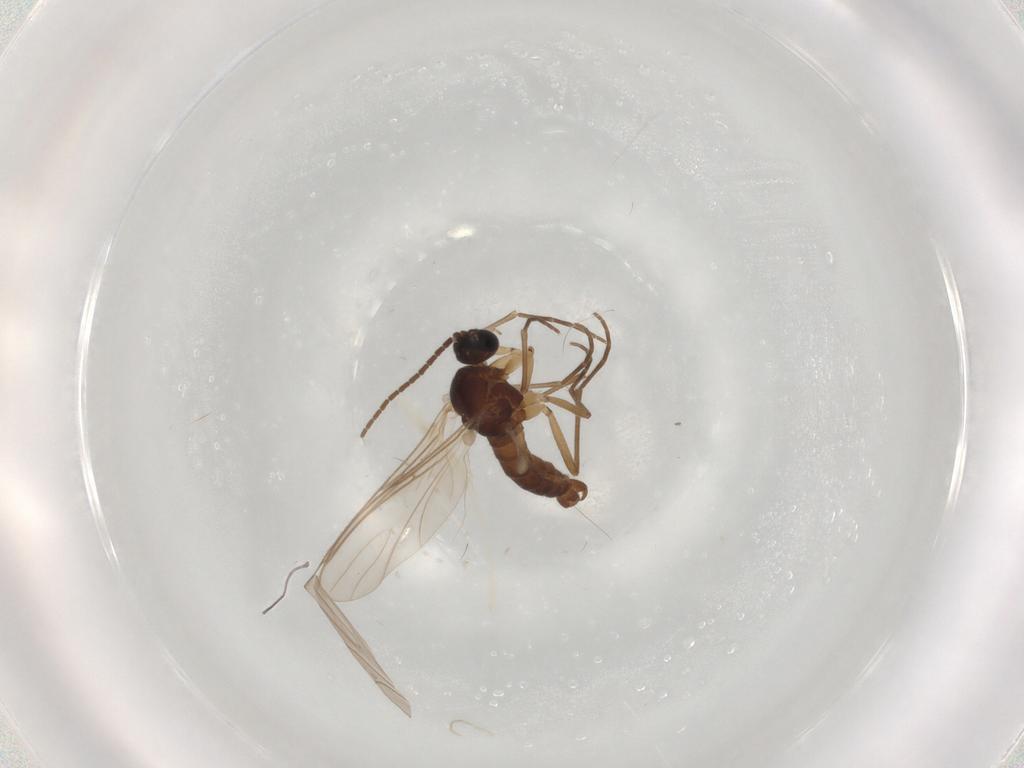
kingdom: Animalia
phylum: Arthropoda
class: Insecta
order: Diptera
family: Sciaridae
